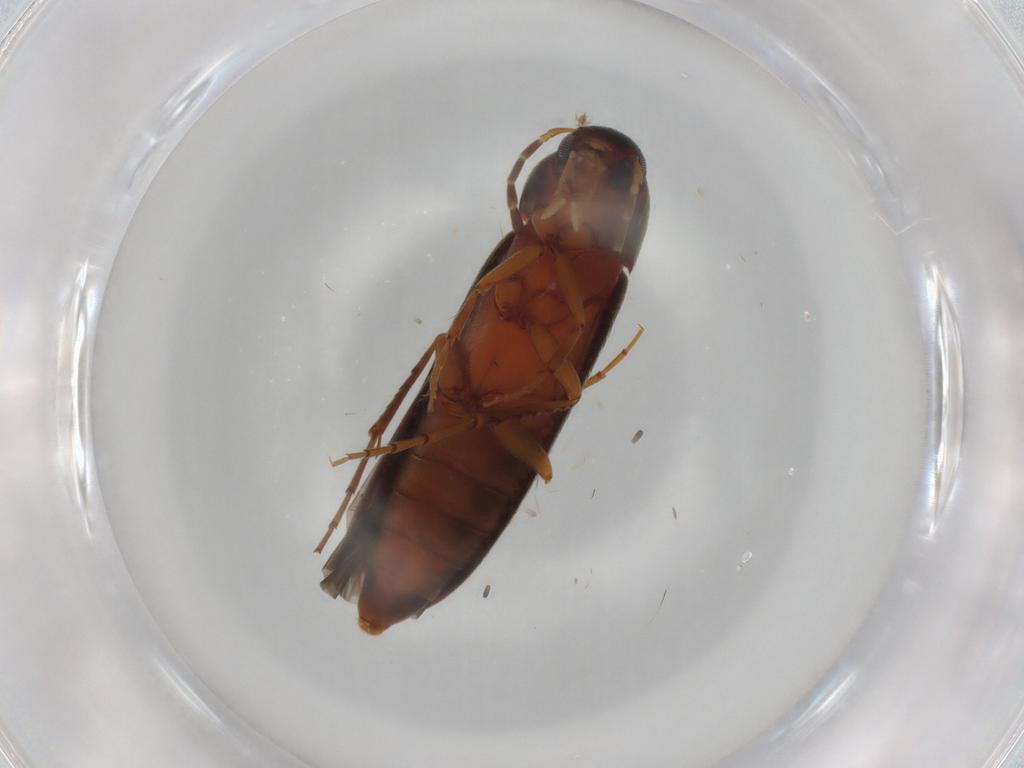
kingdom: Animalia
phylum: Arthropoda
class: Insecta
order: Coleoptera
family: Melandryidae
